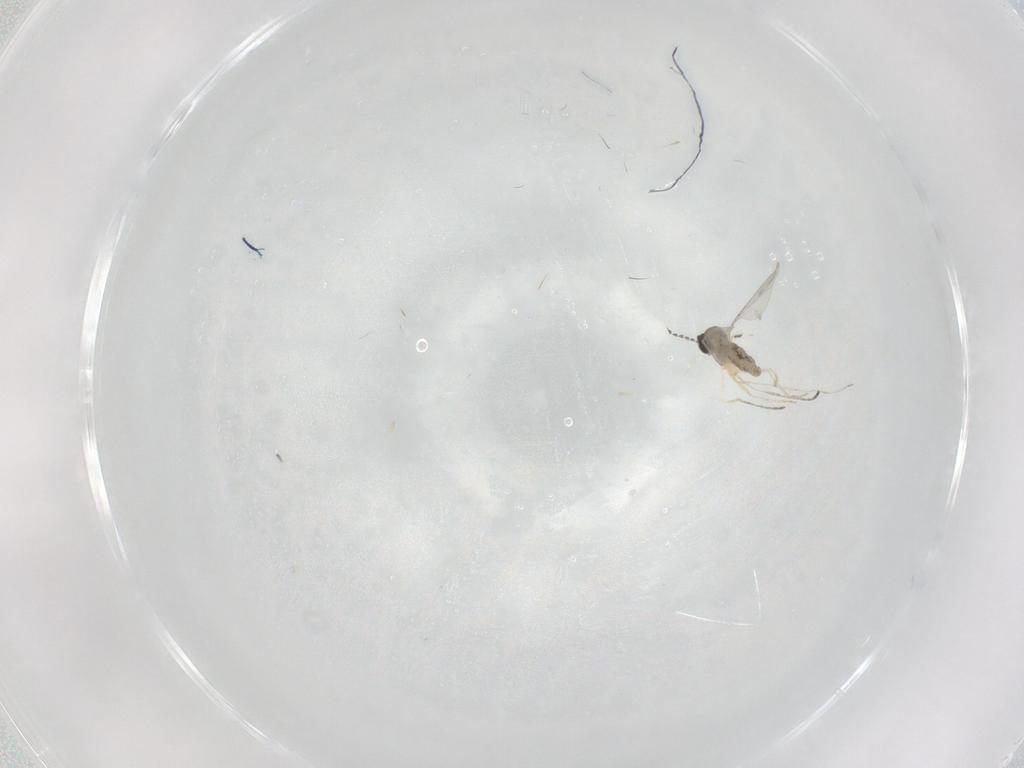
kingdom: Animalia
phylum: Arthropoda
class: Insecta
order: Diptera
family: Cecidomyiidae
